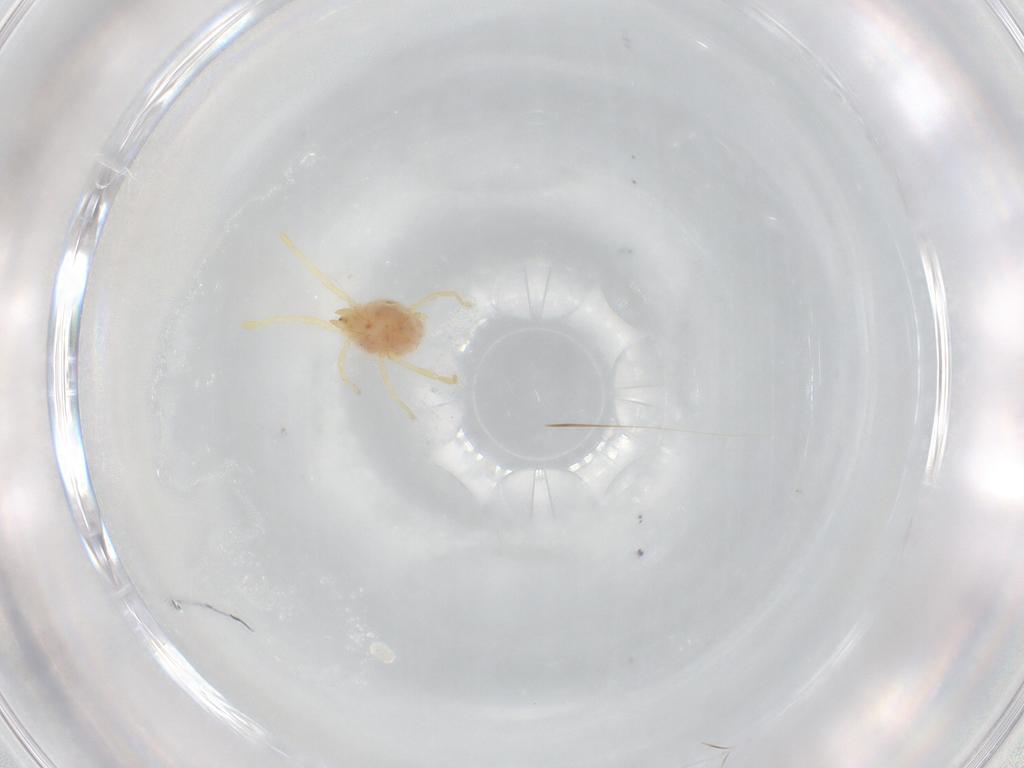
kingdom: Animalia
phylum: Arthropoda
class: Arachnida
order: Trombidiformes
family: Erythraeidae
